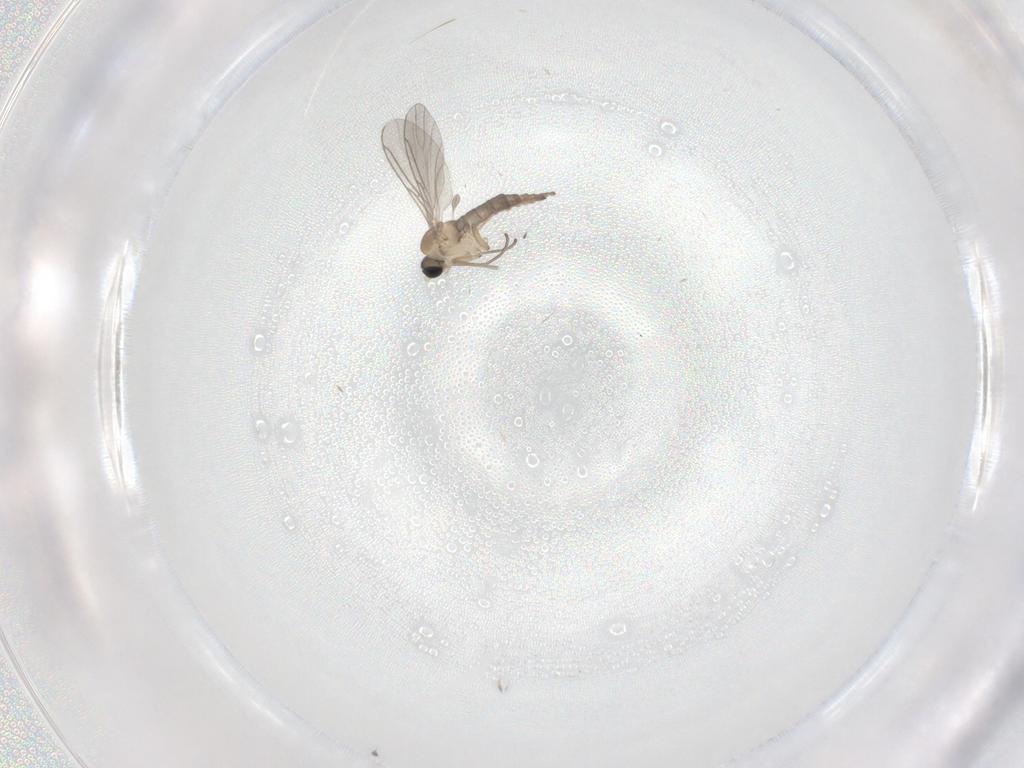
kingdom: Animalia
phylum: Arthropoda
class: Insecta
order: Diptera
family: Sciaridae
